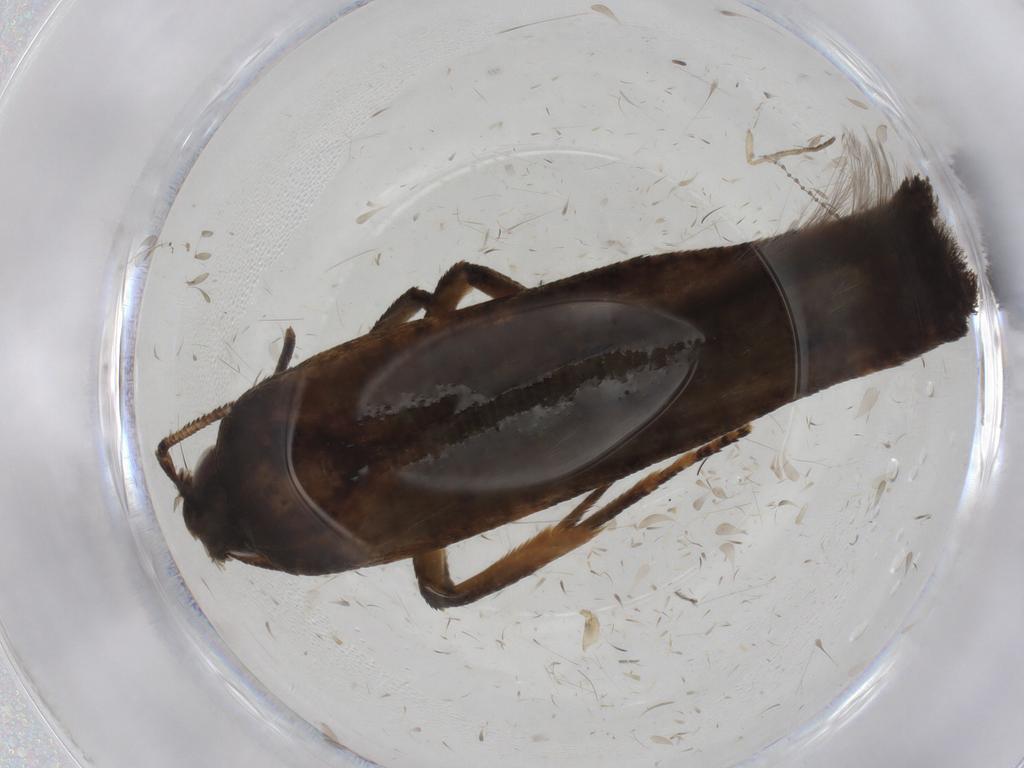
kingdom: Animalia
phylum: Arthropoda
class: Insecta
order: Lepidoptera
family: Cosmopterigidae
